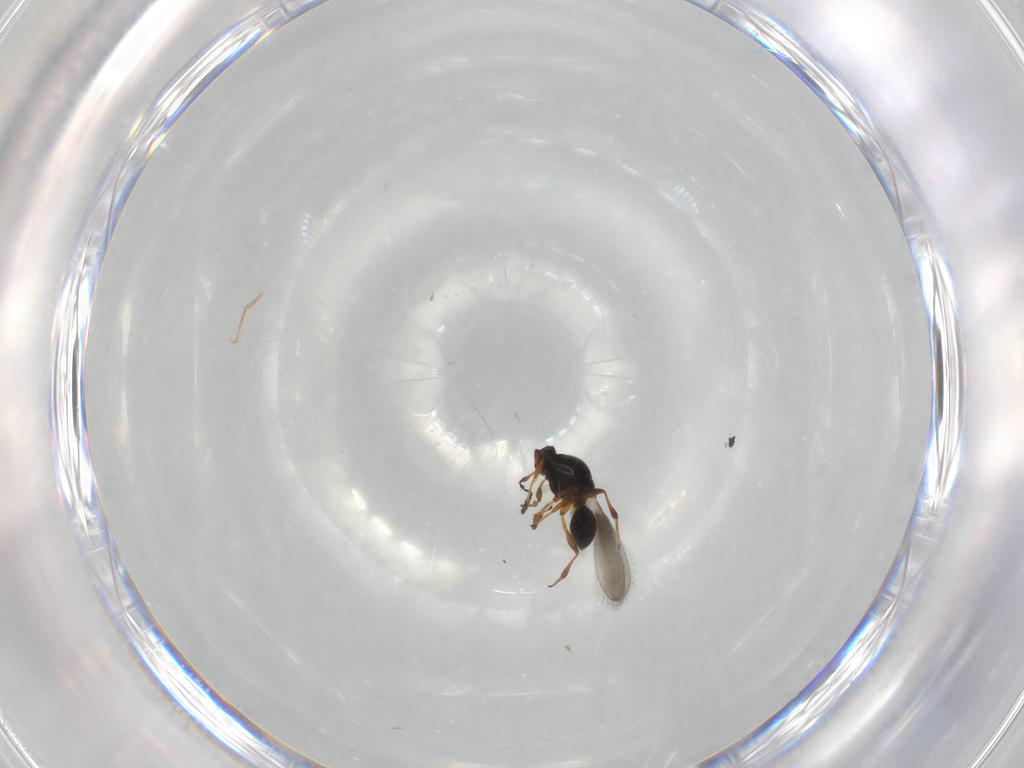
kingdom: Animalia
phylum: Arthropoda
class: Insecta
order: Hymenoptera
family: Platygastridae
